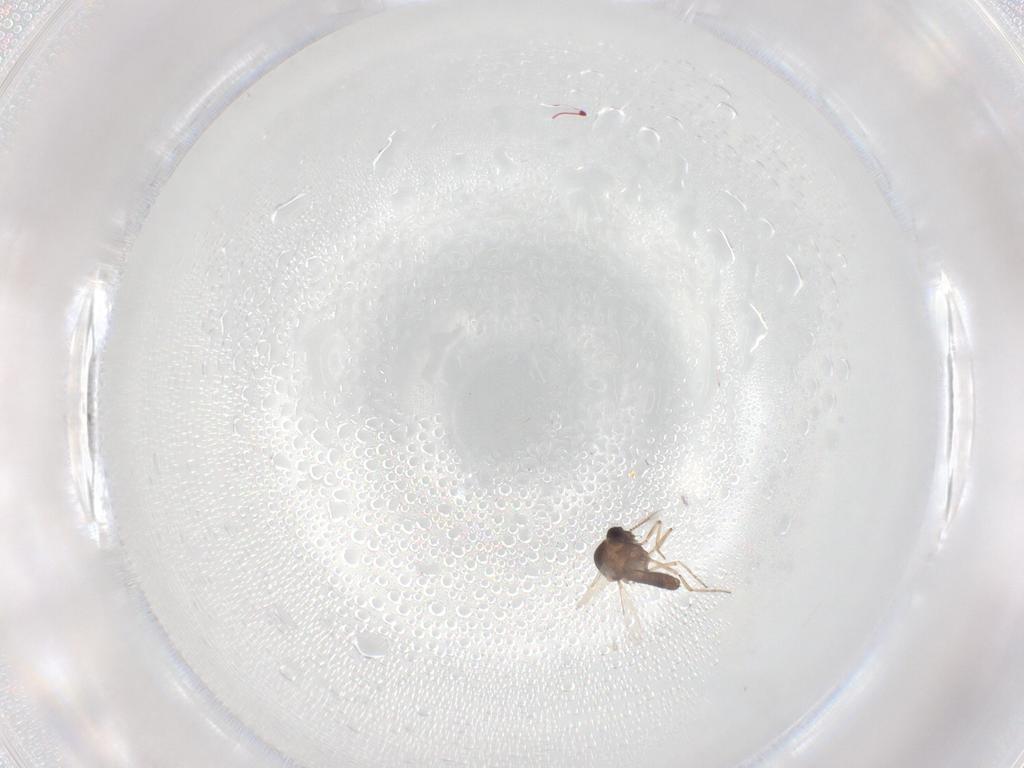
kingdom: Animalia
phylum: Arthropoda
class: Insecta
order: Diptera
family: Ceratopogonidae
